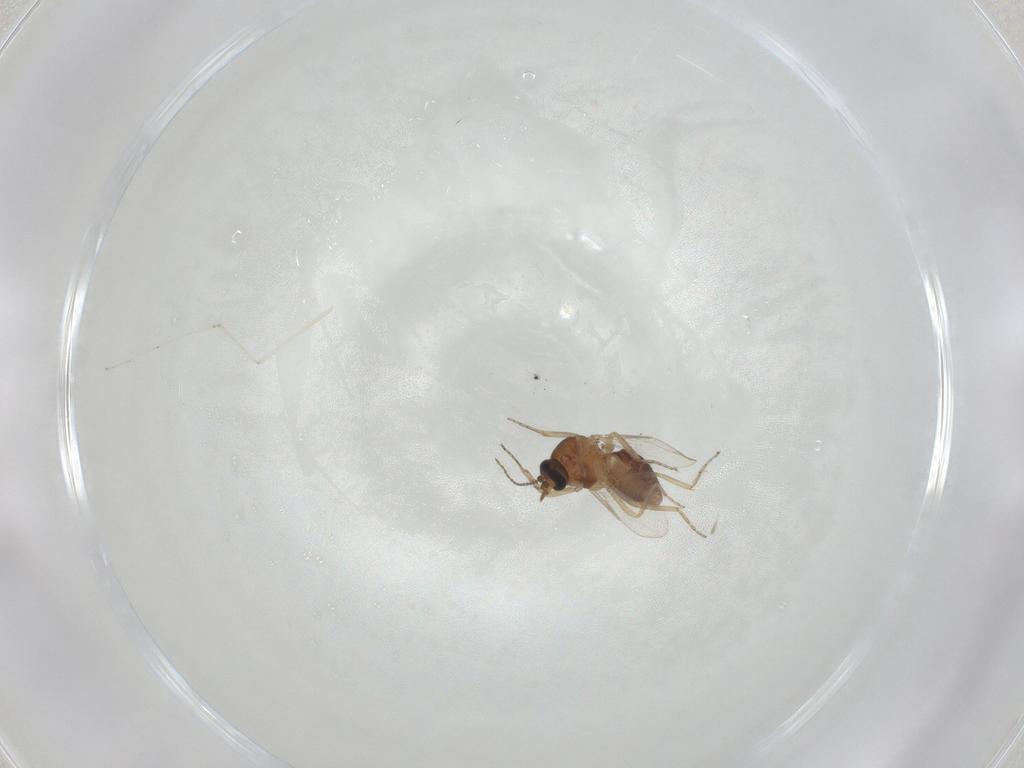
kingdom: Animalia
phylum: Arthropoda
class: Insecta
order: Diptera
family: Ceratopogonidae
